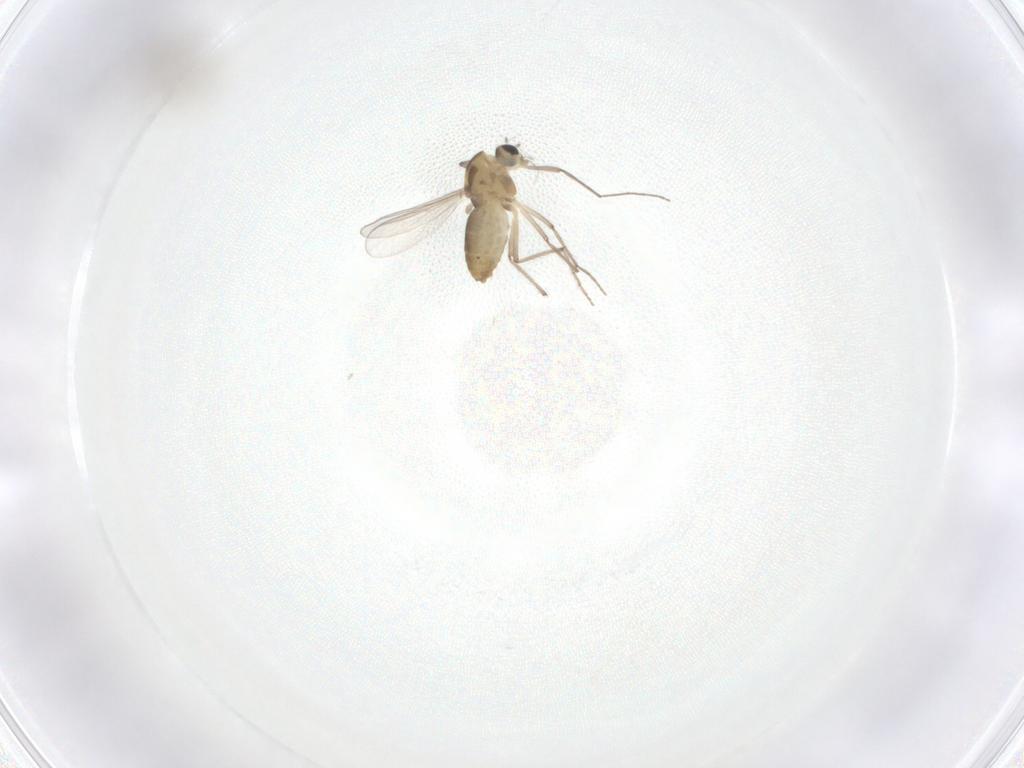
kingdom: Animalia
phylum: Arthropoda
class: Insecta
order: Diptera
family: Chironomidae
